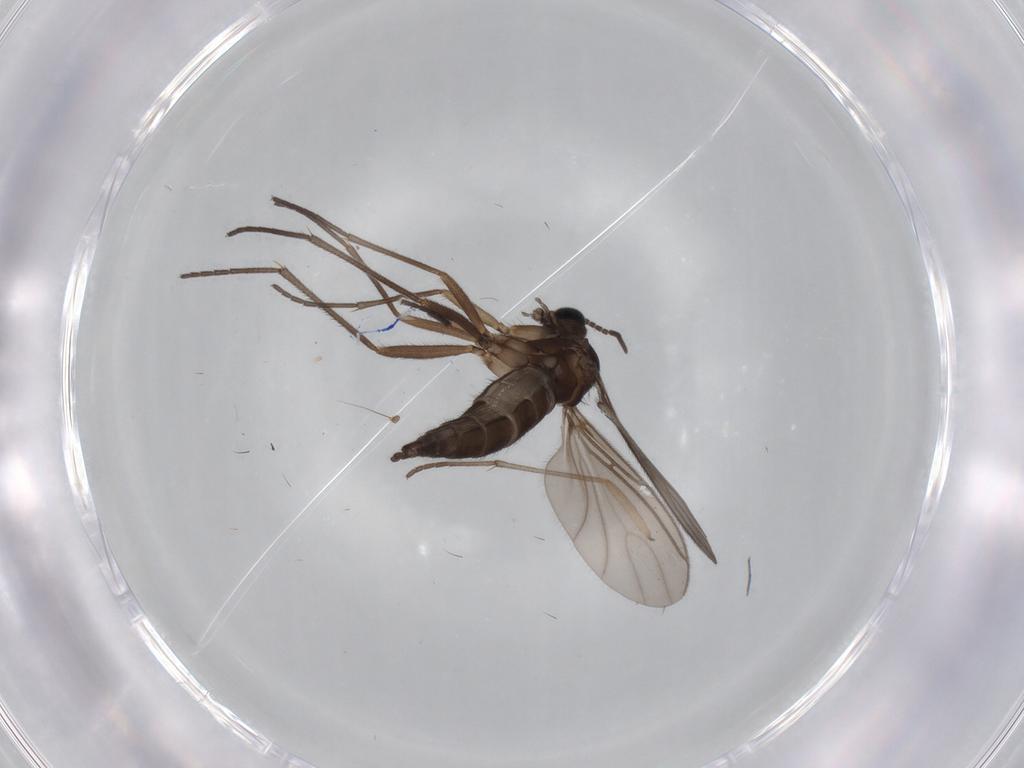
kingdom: Animalia
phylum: Arthropoda
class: Insecta
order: Diptera
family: Sciaridae
